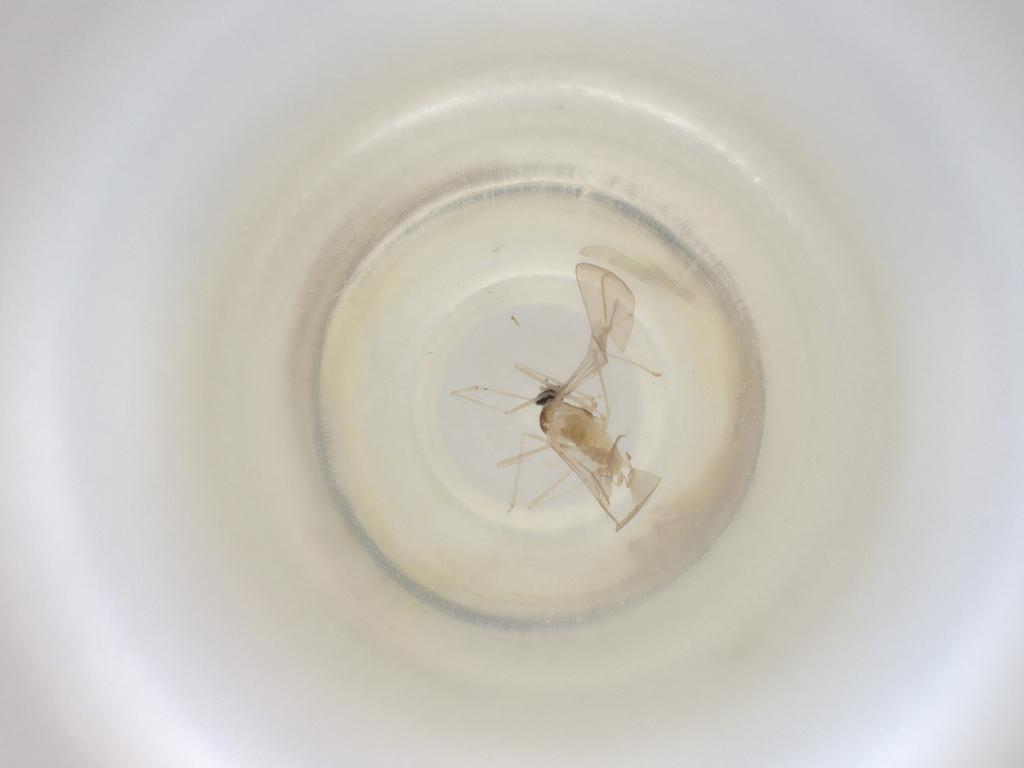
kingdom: Animalia
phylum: Arthropoda
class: Insecta
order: Diptera
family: Cecidomyiidae
